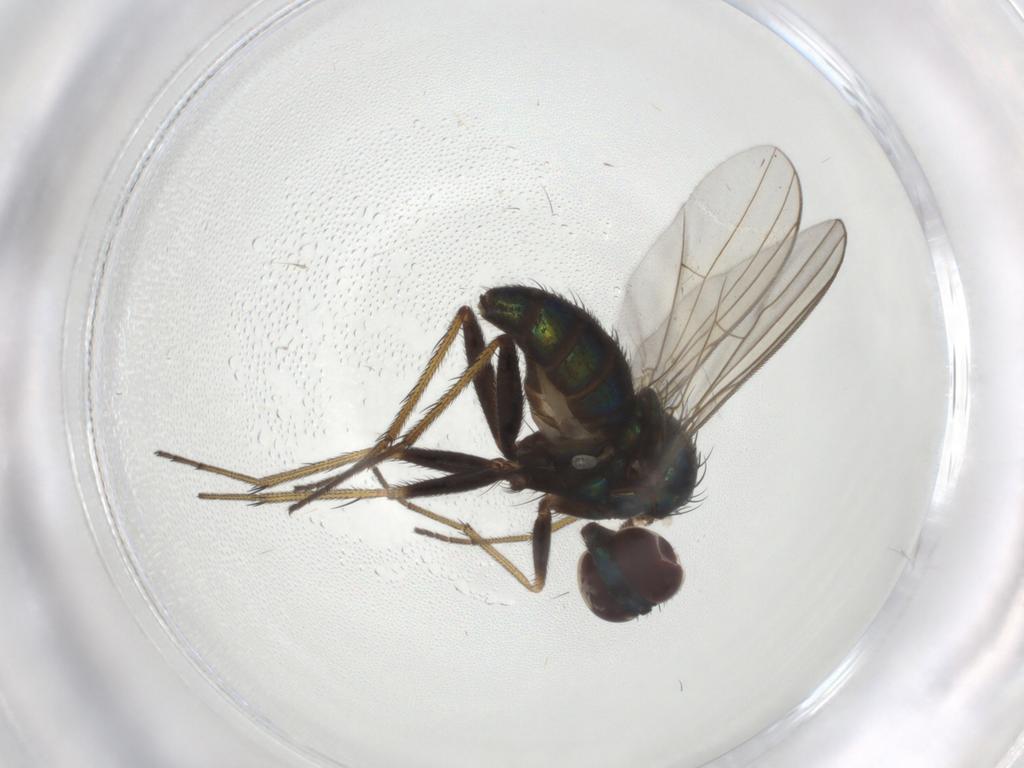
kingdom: Animalia
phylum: Arthropoda
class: Insecta
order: Diptera
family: Dolichopodidae
